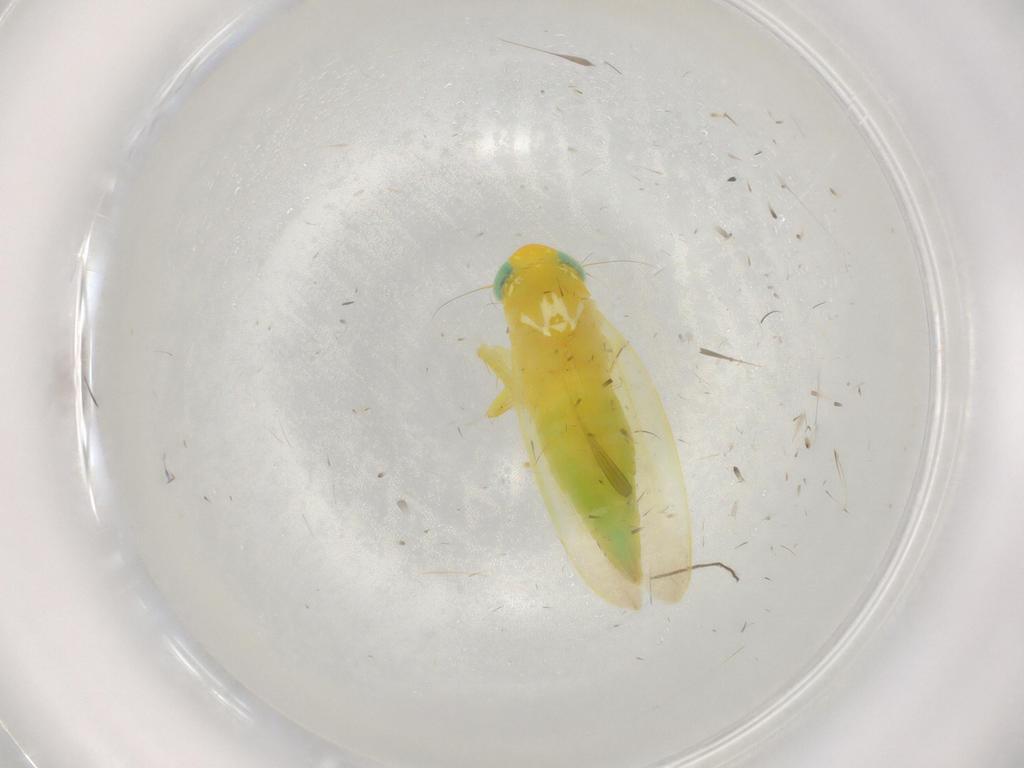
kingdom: Animalia
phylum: Arthropoda
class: Insecta
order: Hemiptera
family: Cicadellidae
